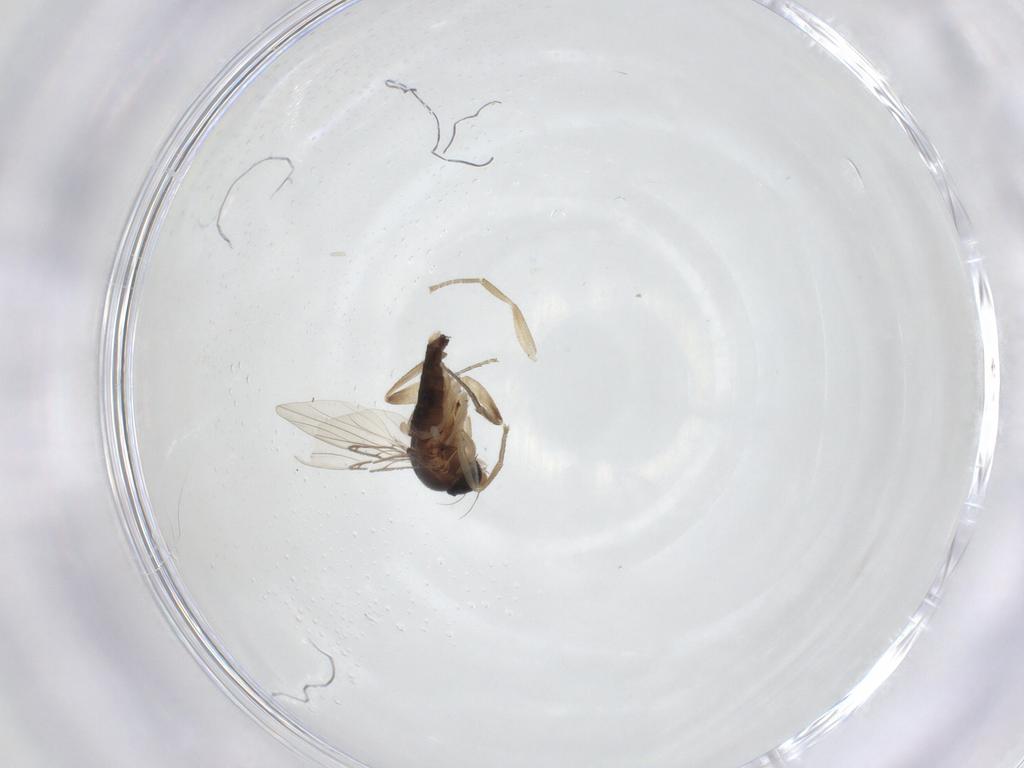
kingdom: Animalia
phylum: Arthropoda
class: Insecta
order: Diptera
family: Phoridae
